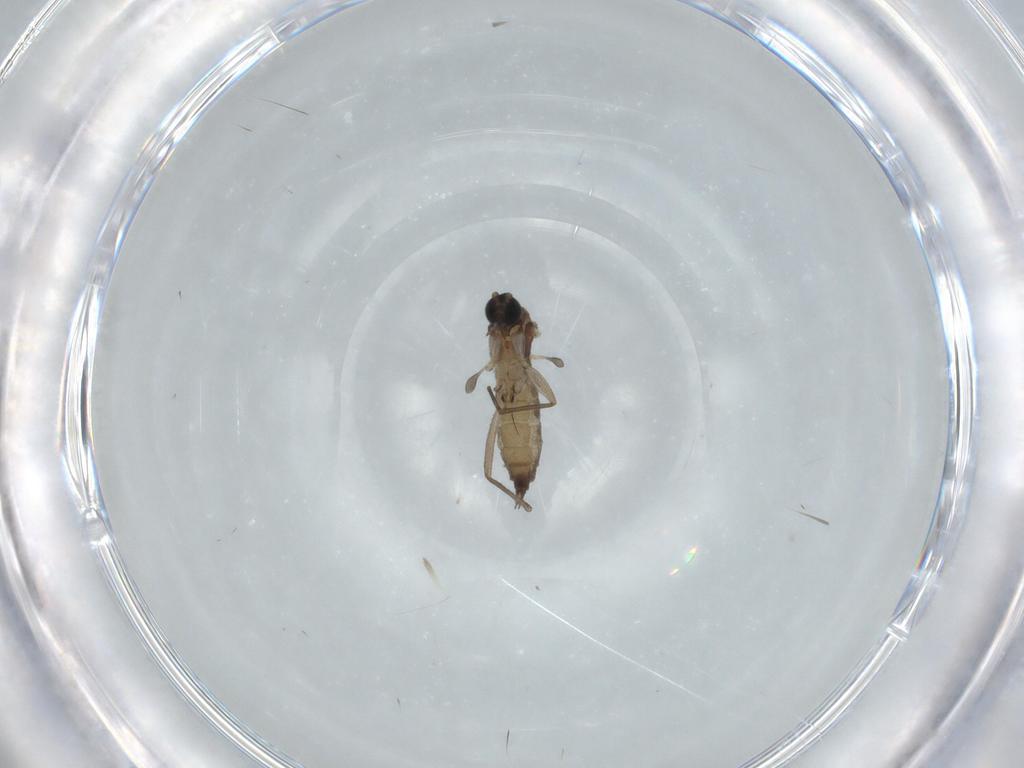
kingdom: Animalia
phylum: Arthropoda
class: Insecta
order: Diptera
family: Sciaridae
